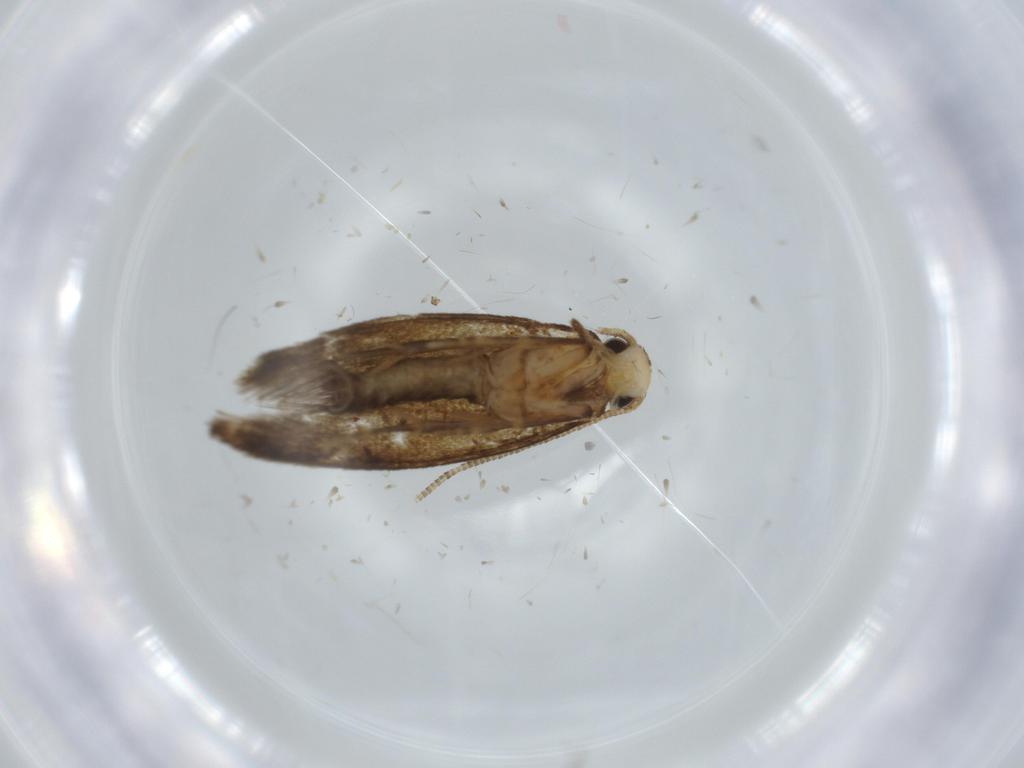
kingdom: Animalia
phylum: Arthropoda
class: Insecta
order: Lepidoptera
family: Tineidae
